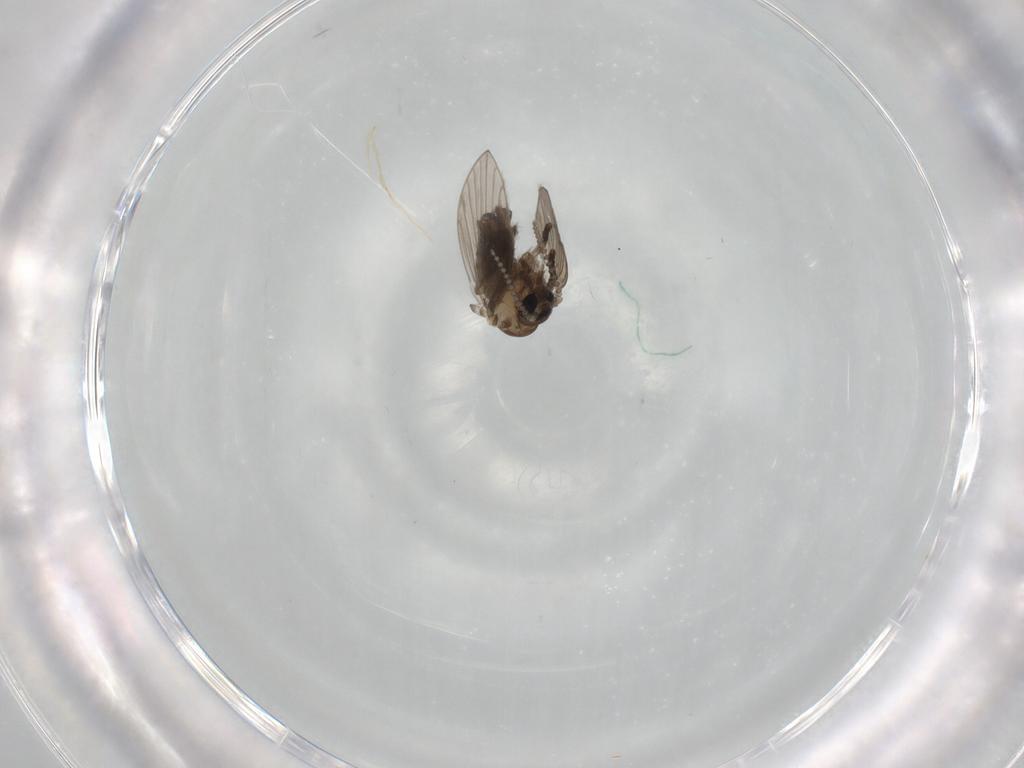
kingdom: Animalia
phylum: Arthropoda
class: Insecta
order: Diptera
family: Psychodidae
